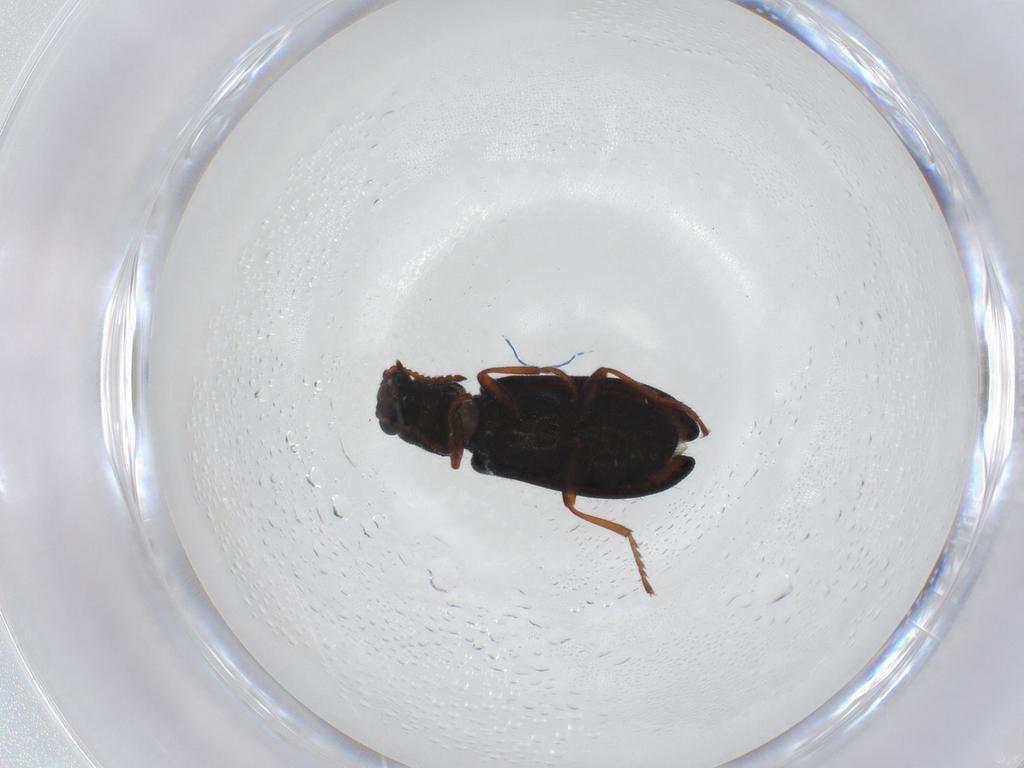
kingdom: Animalia
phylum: Arthropoda
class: Insecta
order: Coleoptera
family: Melyridae
